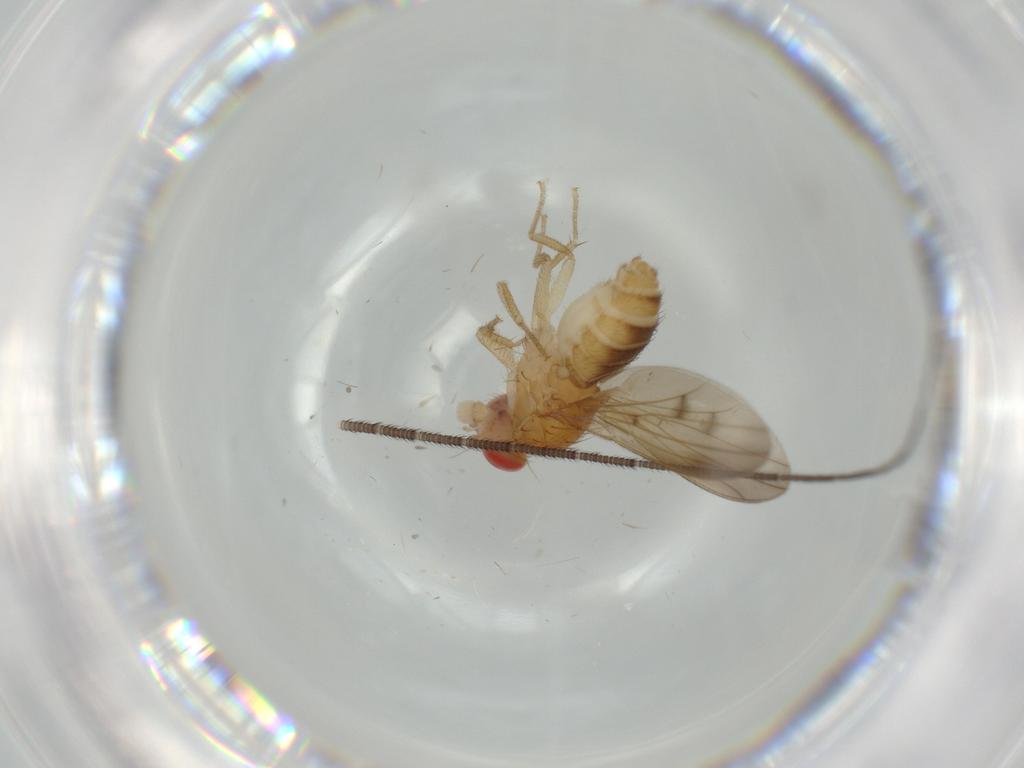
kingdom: Animalia
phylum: Arthropoda
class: Insecta
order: Diptera
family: Drosophilidae
